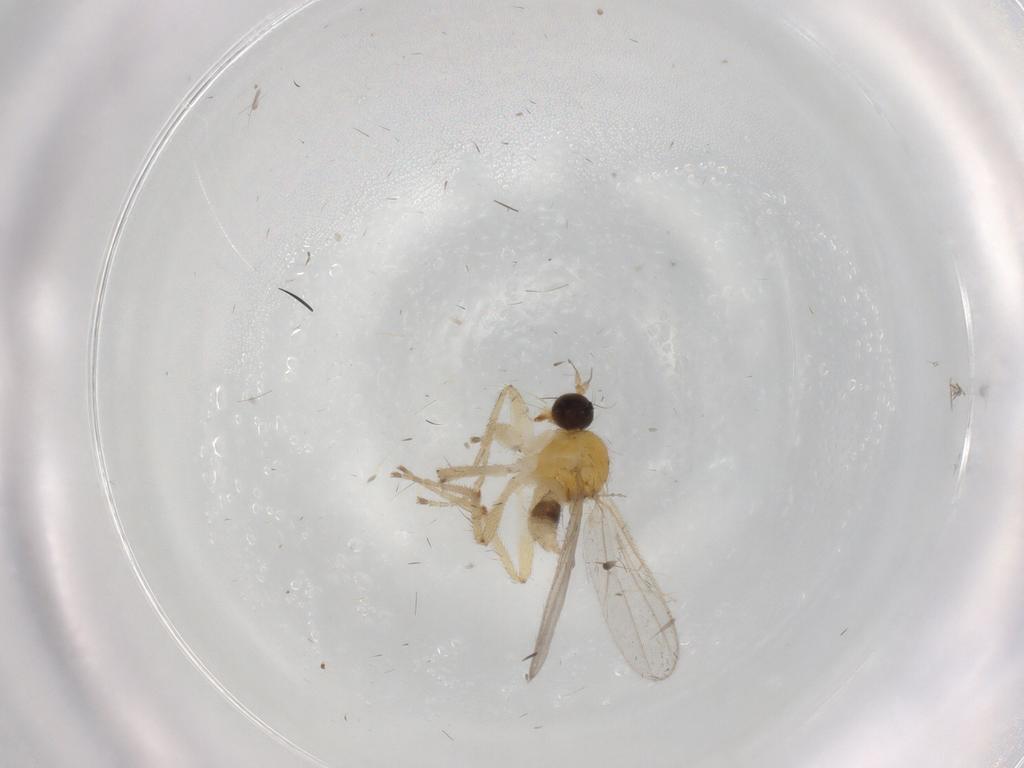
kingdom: Animalia
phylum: Arthropoda
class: Insecta
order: Diptera
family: Hybotidae
